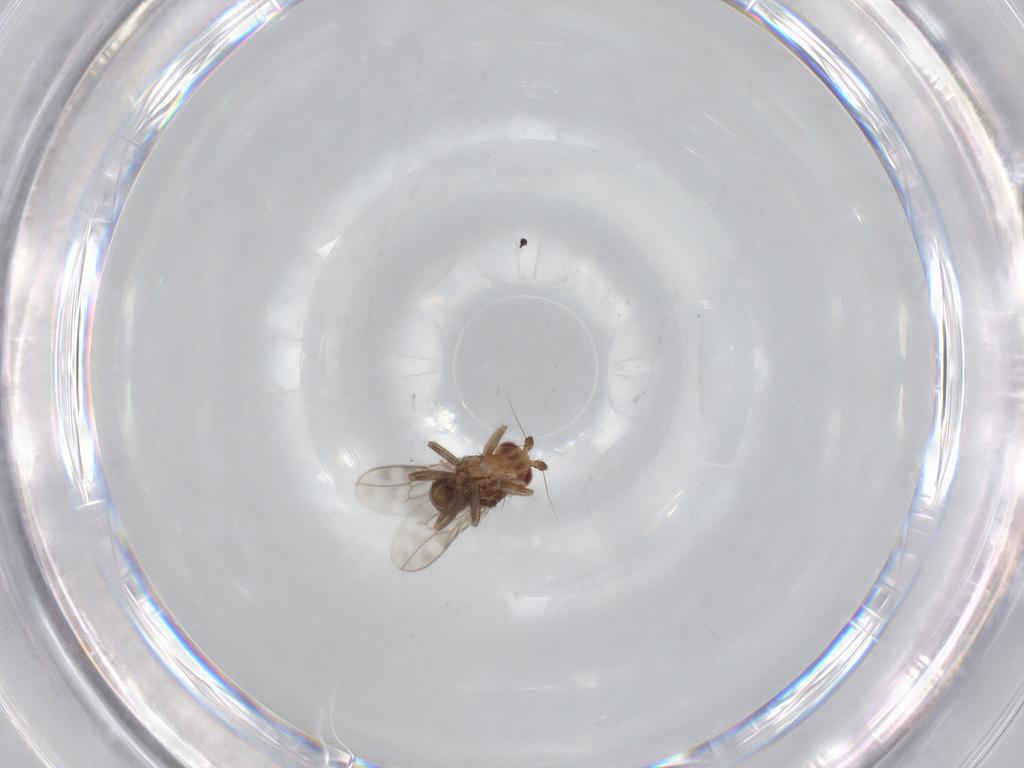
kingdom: Animalia
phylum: Arthropoda
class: Insecta
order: Diptera
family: Sphaeroceridae
